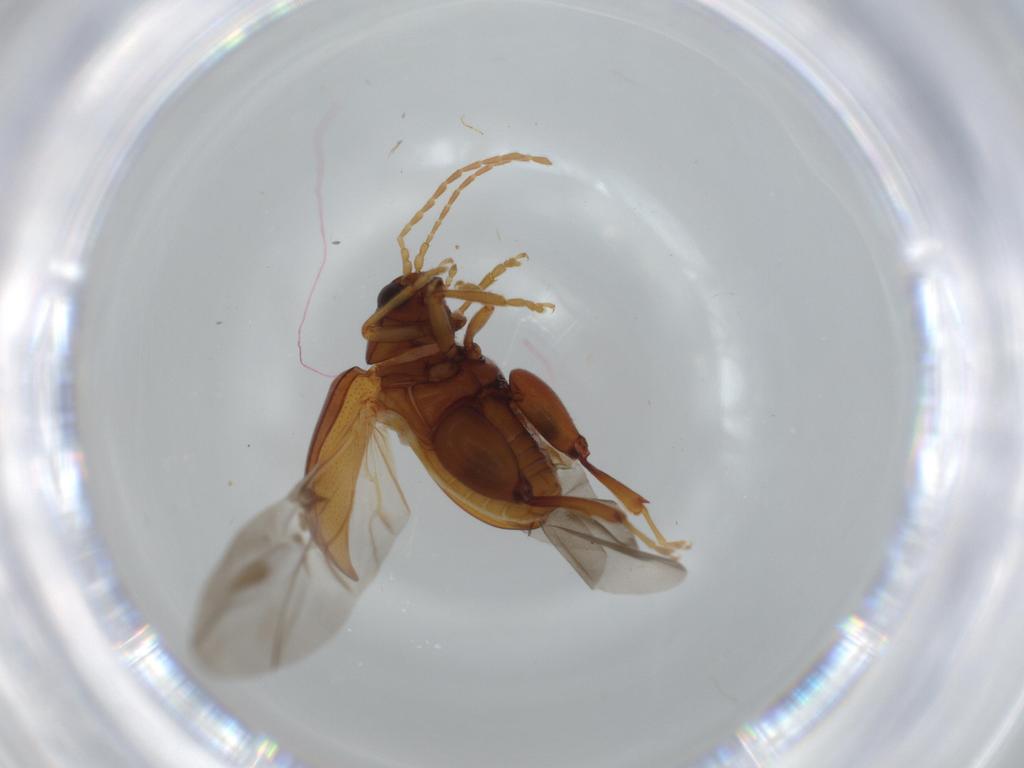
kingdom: Animalia
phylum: Arthropoda
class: Insecta
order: Coleoptera
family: Chrysomelidae
